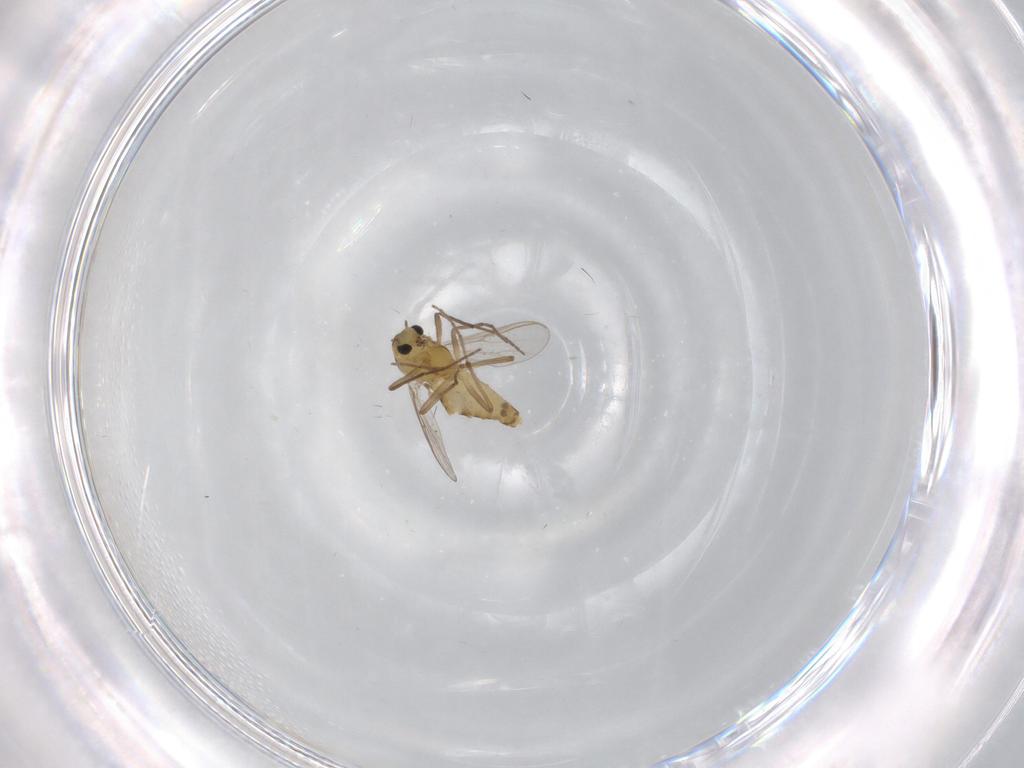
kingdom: Animalia
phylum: Arthropoda
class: Insecta
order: Diptera
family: Chironomidae
